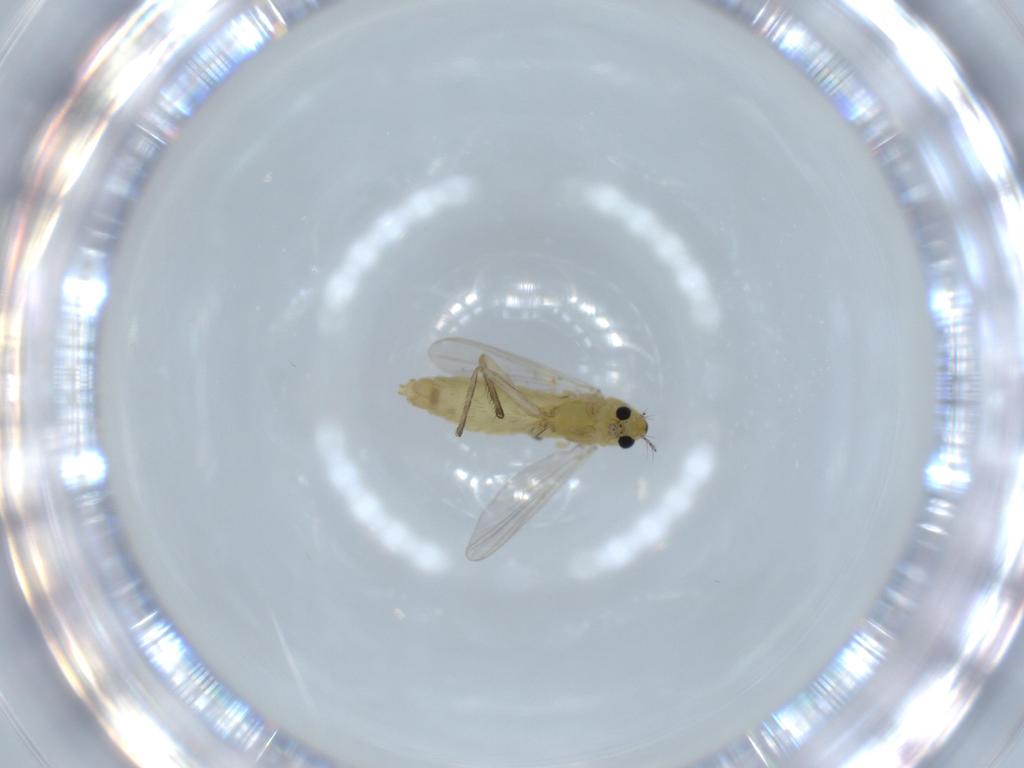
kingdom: Animalia
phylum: Arthropoda
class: Insecta
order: Diptera
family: Chironomidae
